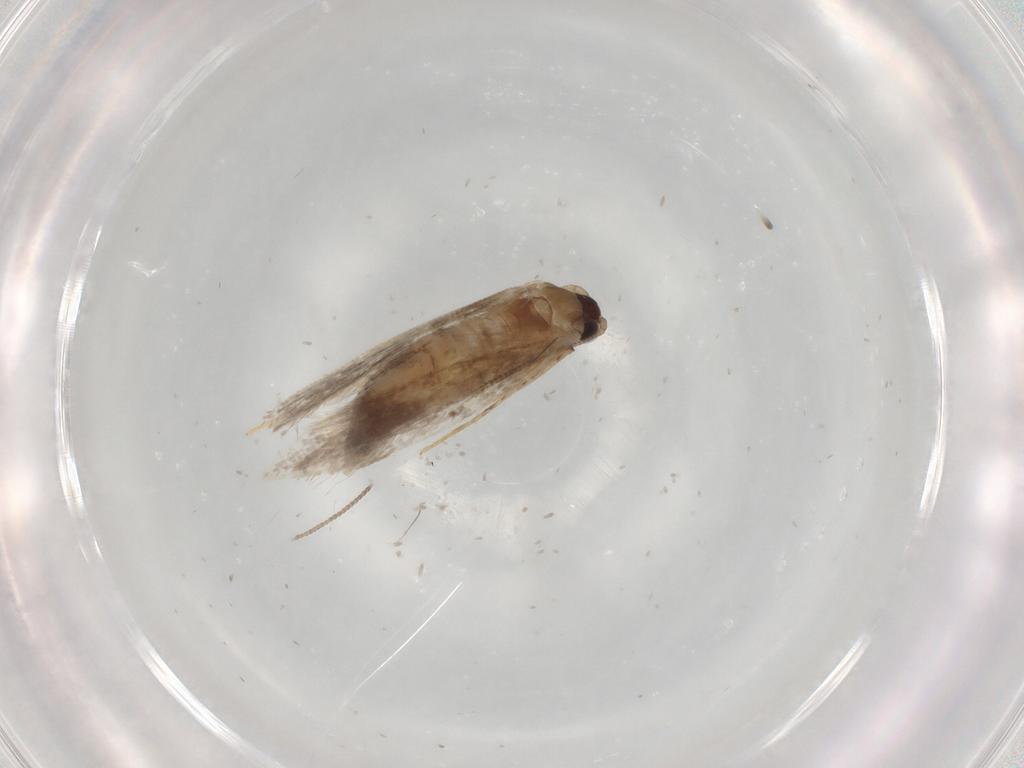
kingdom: Animalia
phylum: Arthropoda
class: Insecta
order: Lepidoptera
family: Tineidae
